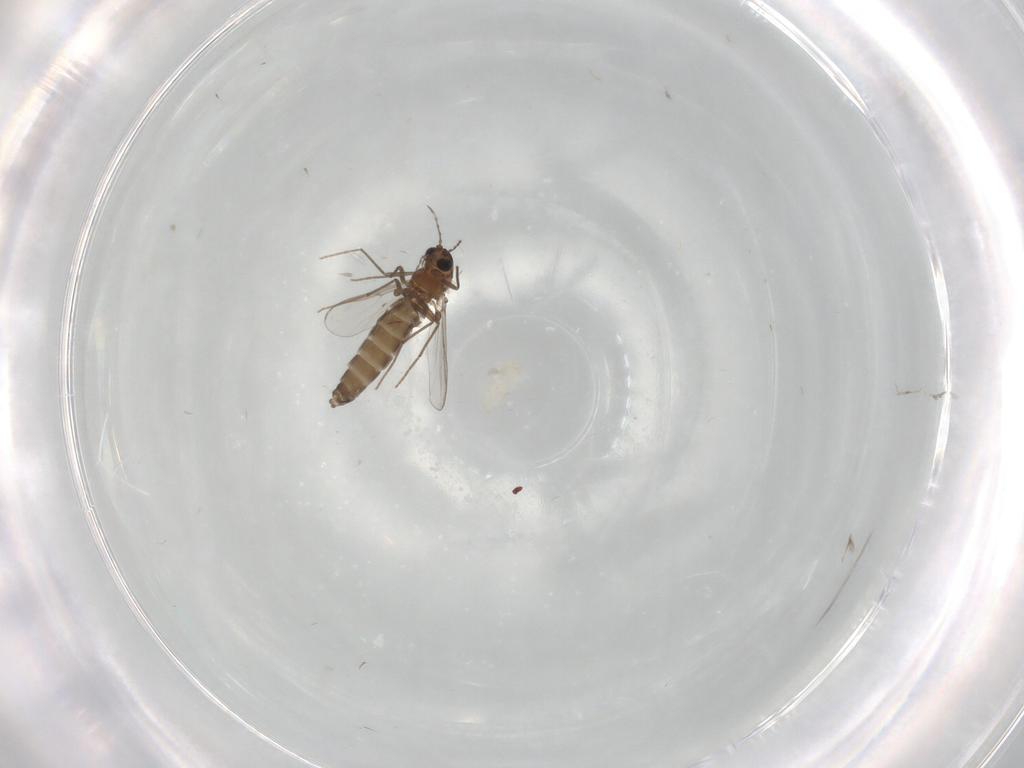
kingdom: Animalia
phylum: Arthropoda
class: Insecta
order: Diptera
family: Chironomidae
